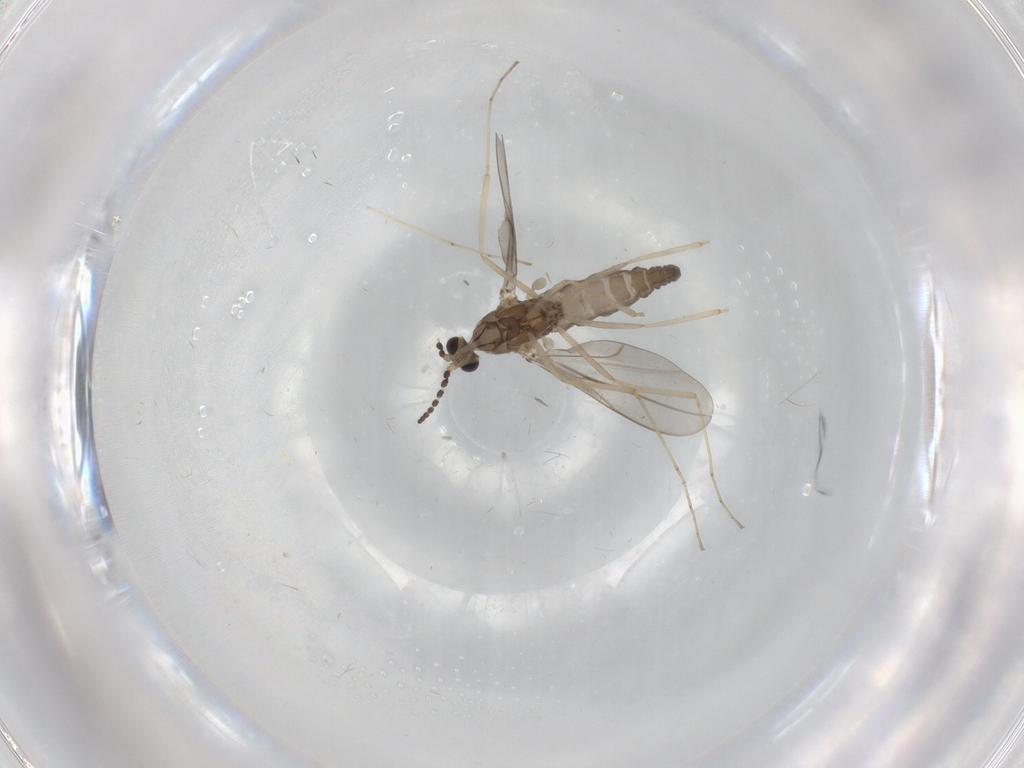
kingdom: Animalia
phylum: Arthropoda
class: Insecta
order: Diptera
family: Cecidomyiidae
